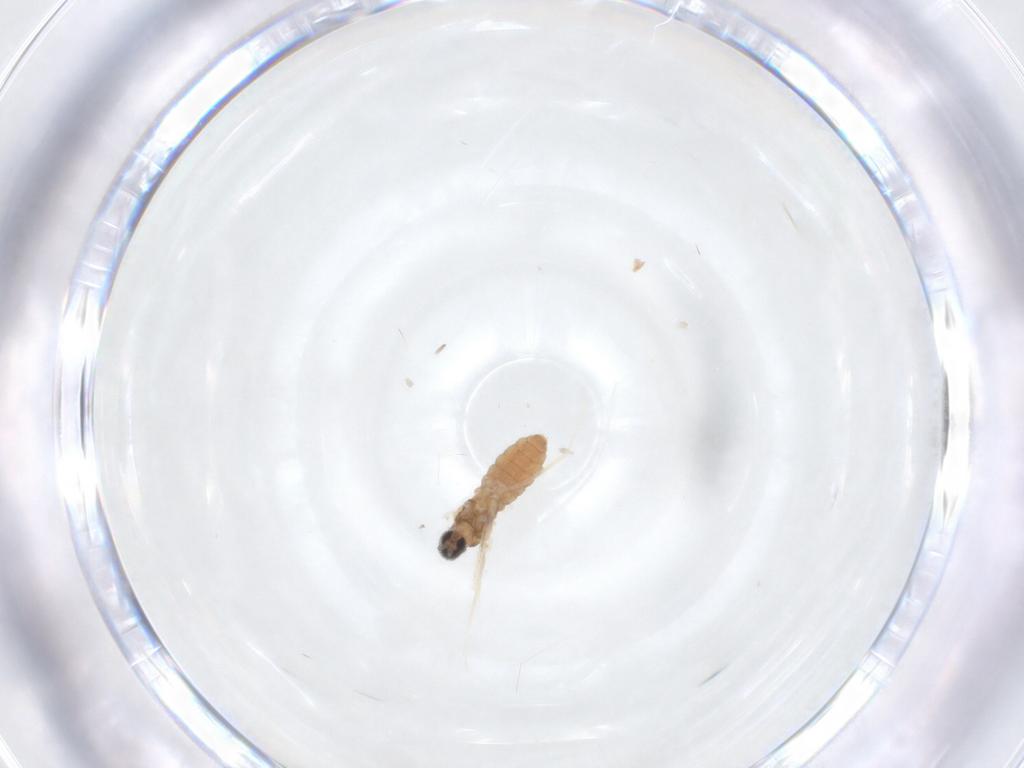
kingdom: Animalia
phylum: Arthropoda
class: Insecta
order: Diptera
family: Cecidomyiidae
